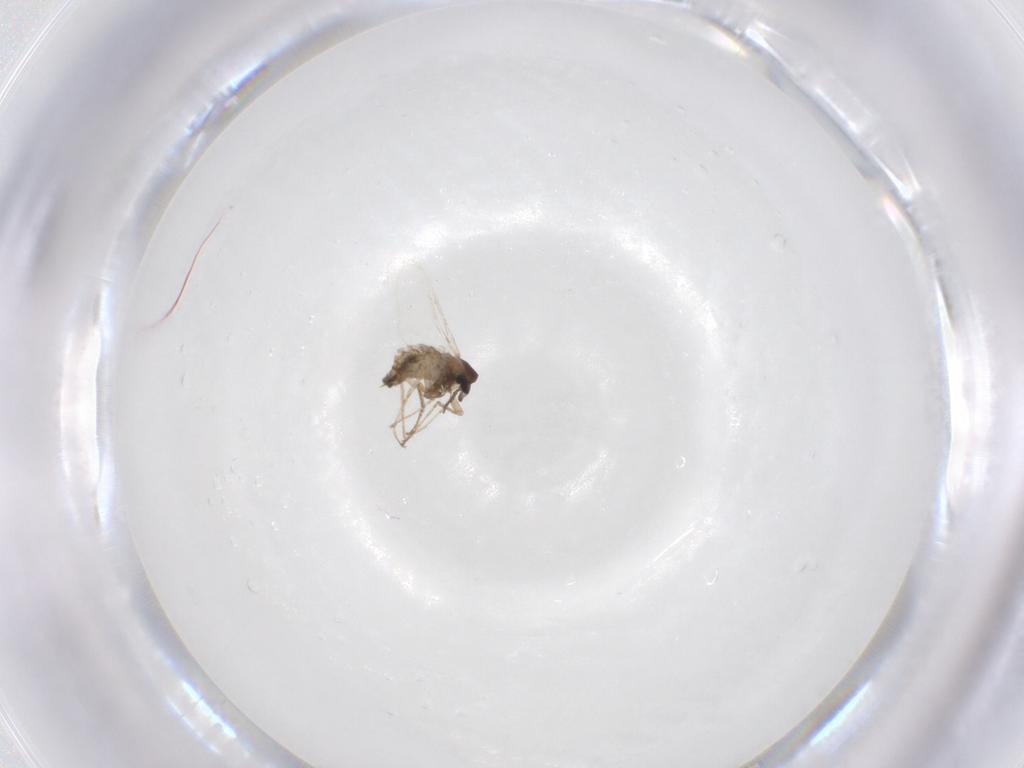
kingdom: Animalia
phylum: Arthropoda
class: Insecta
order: Diptera
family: Cecidomyiidae
